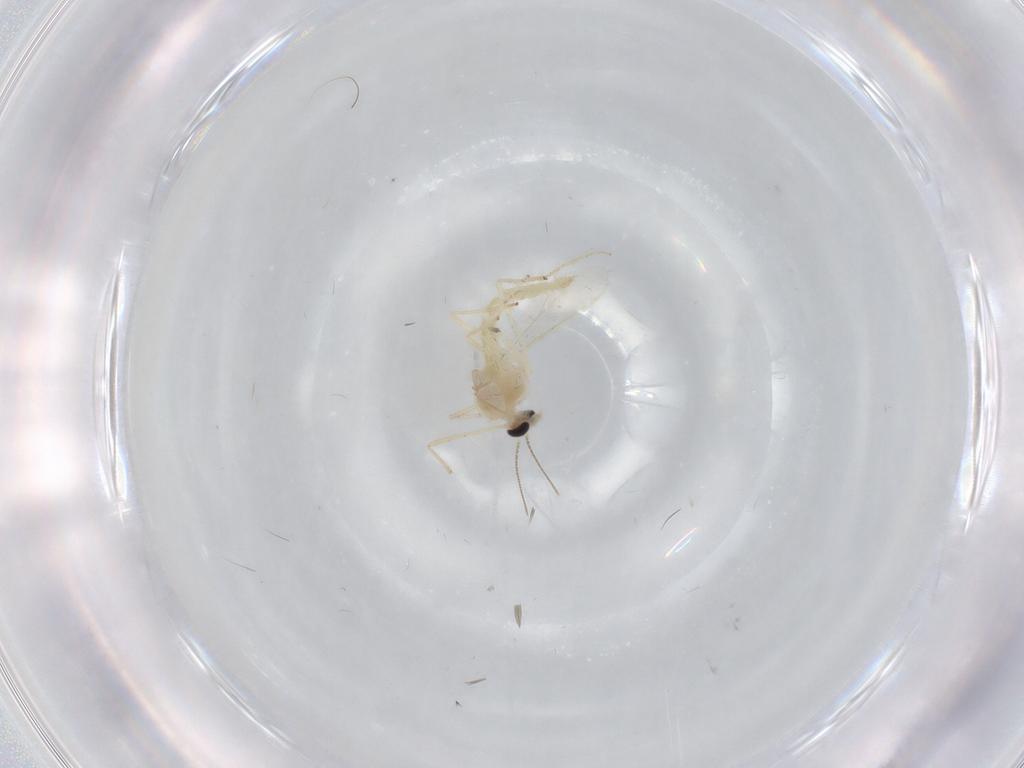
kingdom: Animalia
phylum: Arthropoda
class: Insecta
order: Diptera
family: Chironomidae
